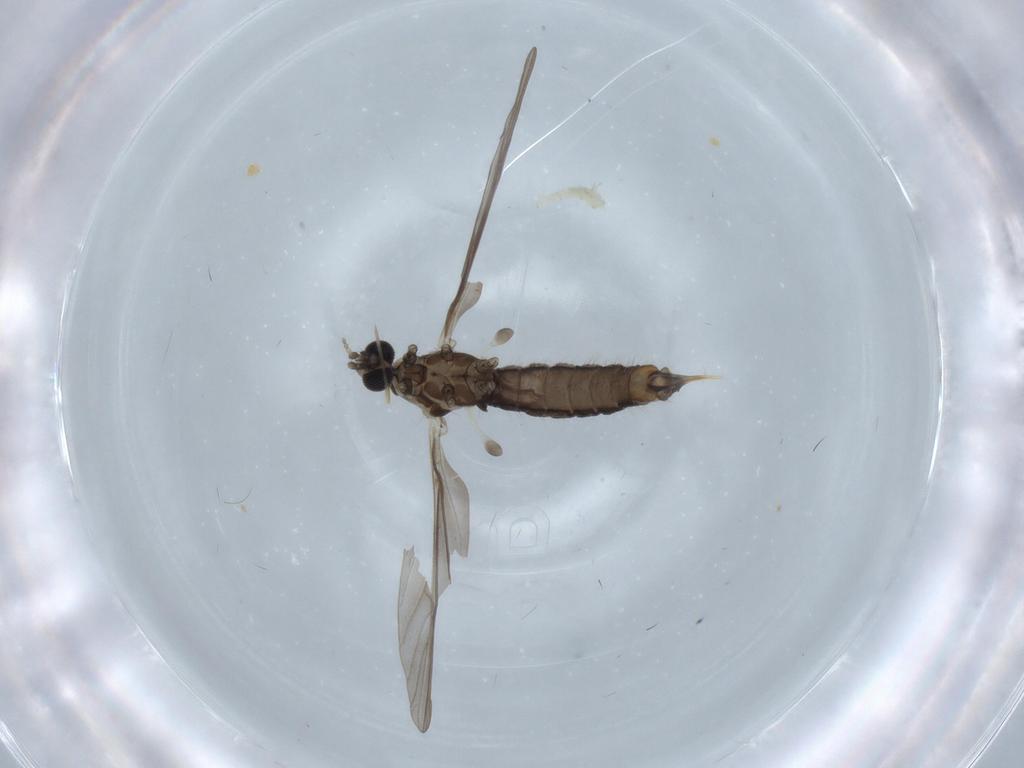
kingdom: Animalia
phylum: Arthropoda
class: Insecta
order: Diptera
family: Limoniidae
